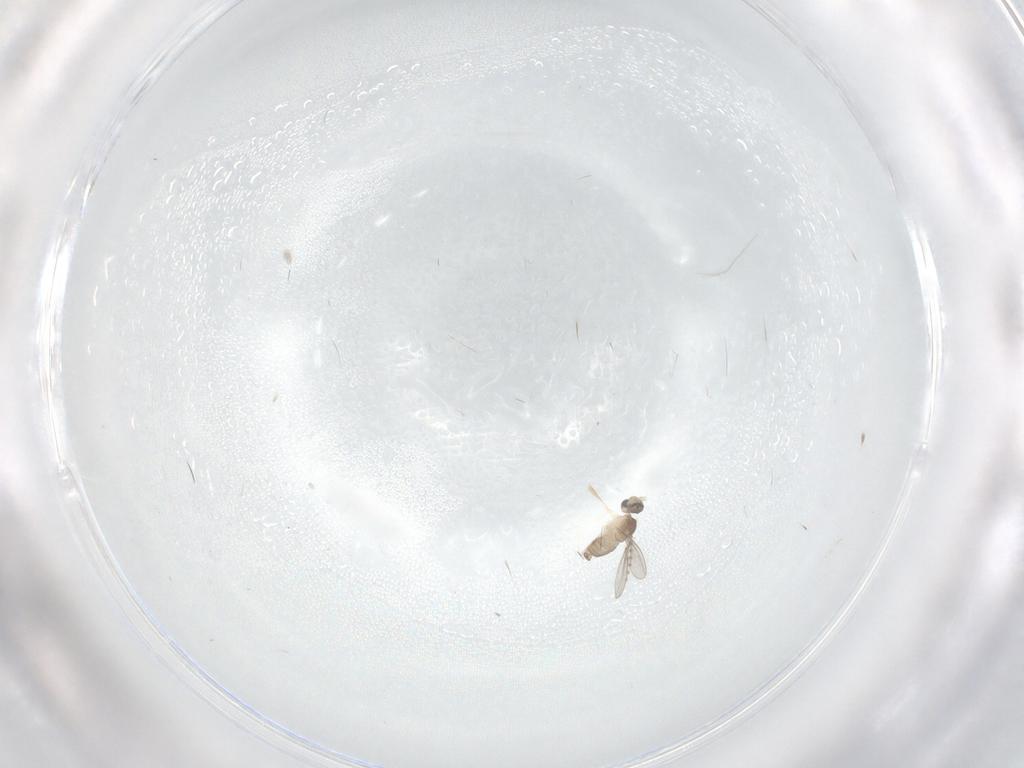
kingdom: Animalia
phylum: Arthropoda
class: Insecta
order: Diptera
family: Cecidomyiidae
